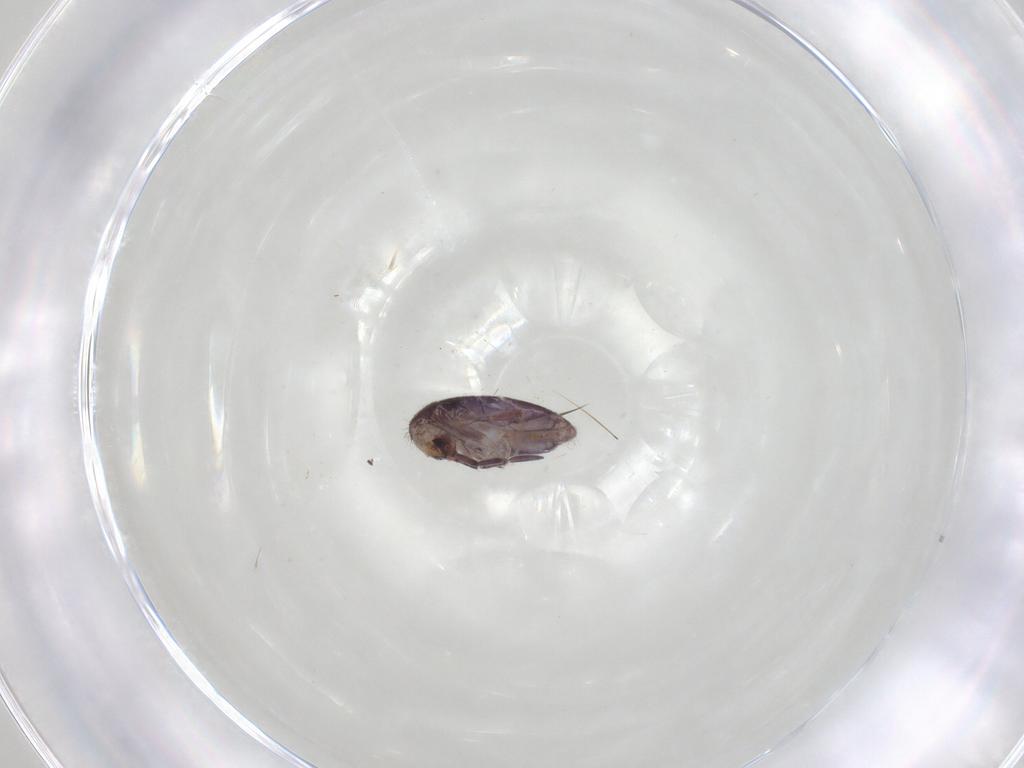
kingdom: Animalia
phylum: Arthropoda
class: Collembola
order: Entomobryomorpha
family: Entomobryidae
